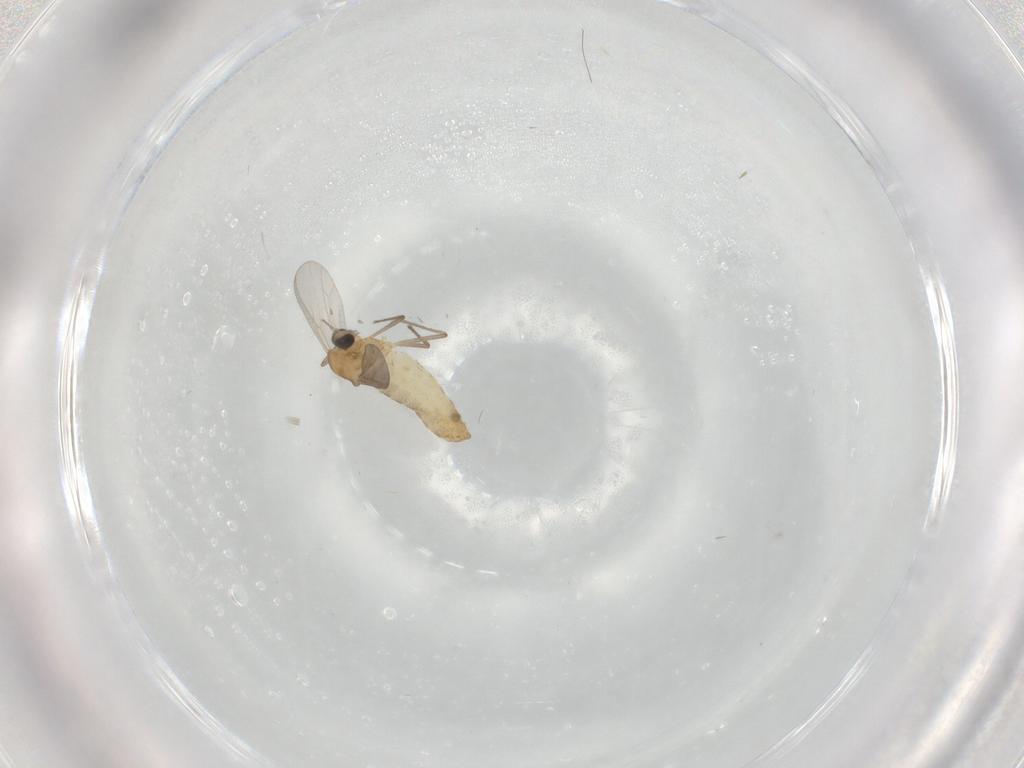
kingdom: Animalia
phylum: Arthropoda
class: Insecta
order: Diptera
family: Chironomidae
